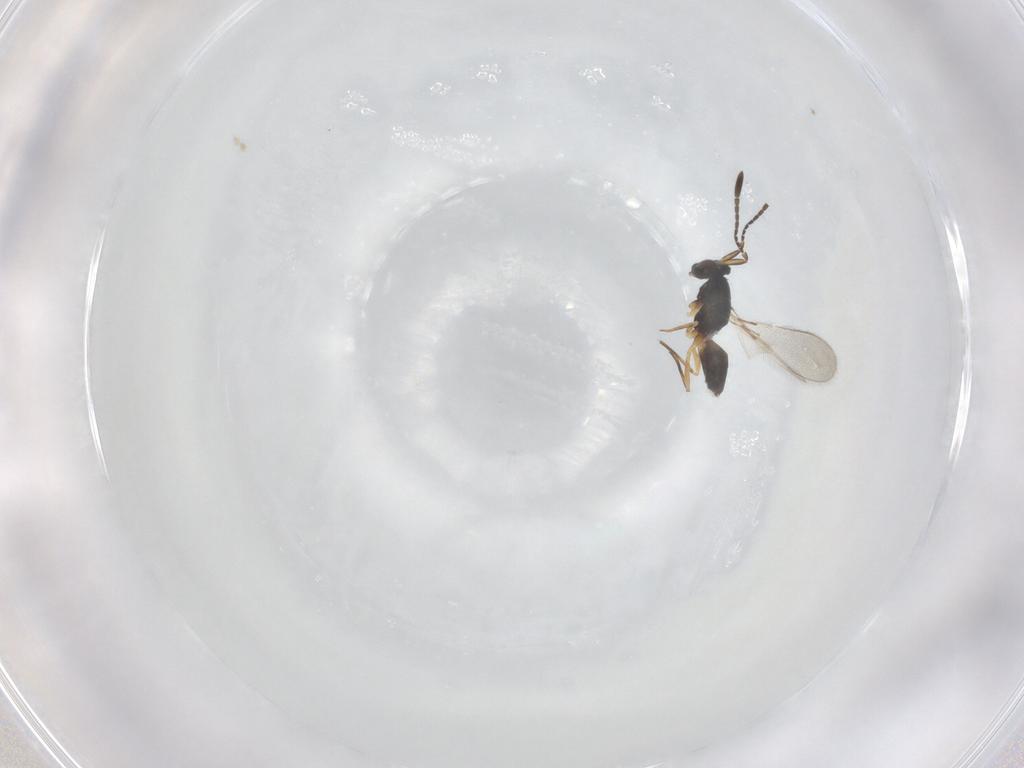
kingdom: Animalia
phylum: Arthropoda
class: Insecta
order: Hymenoptera
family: Mymaridae
